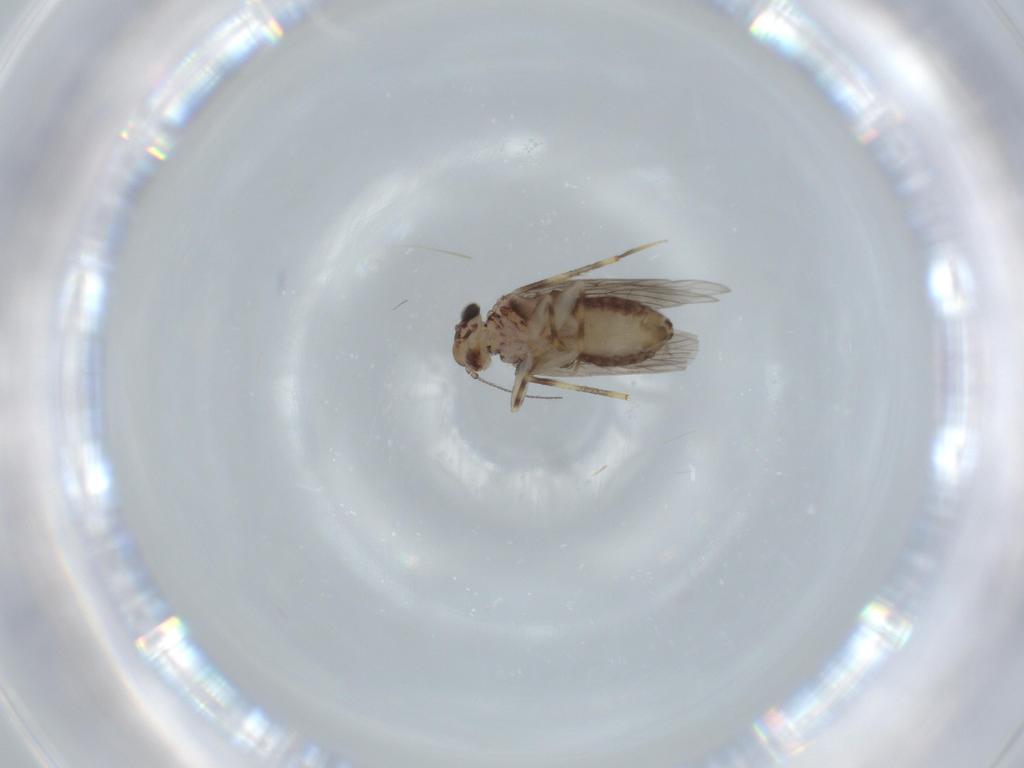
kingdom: Animalia
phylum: Arthropoda
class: Insecta
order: Psocodea
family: Lepidopsocidae
